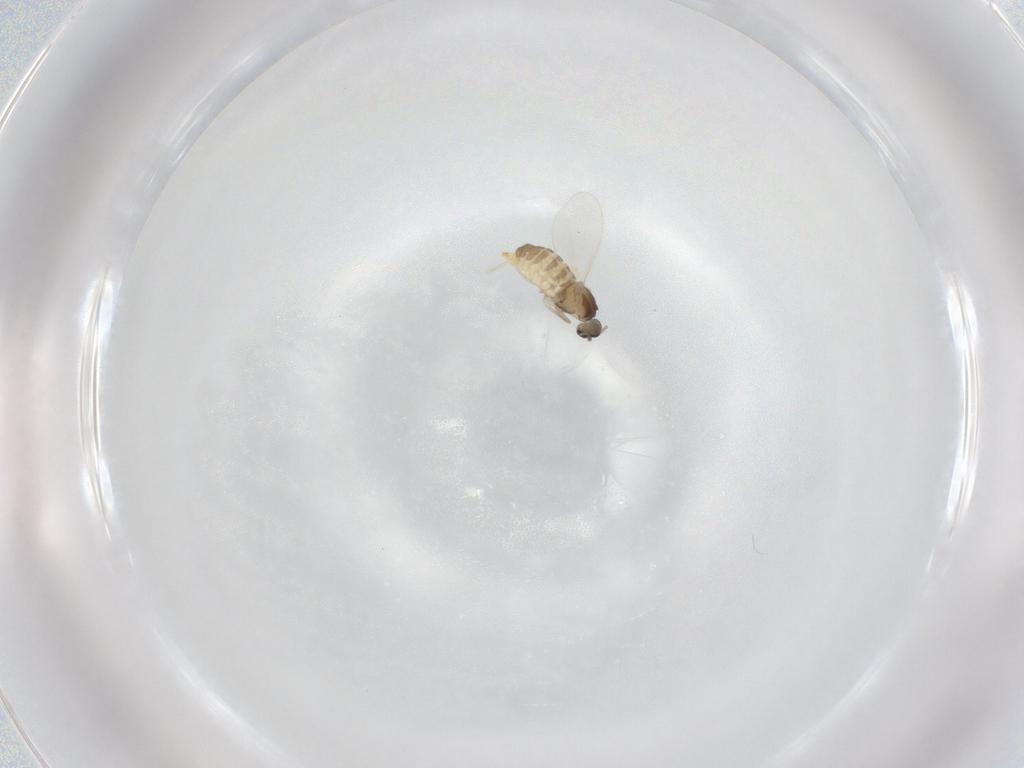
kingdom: Animalia
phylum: Arthropoda
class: Insecta
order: Diptera
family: Cecidomyiidae
